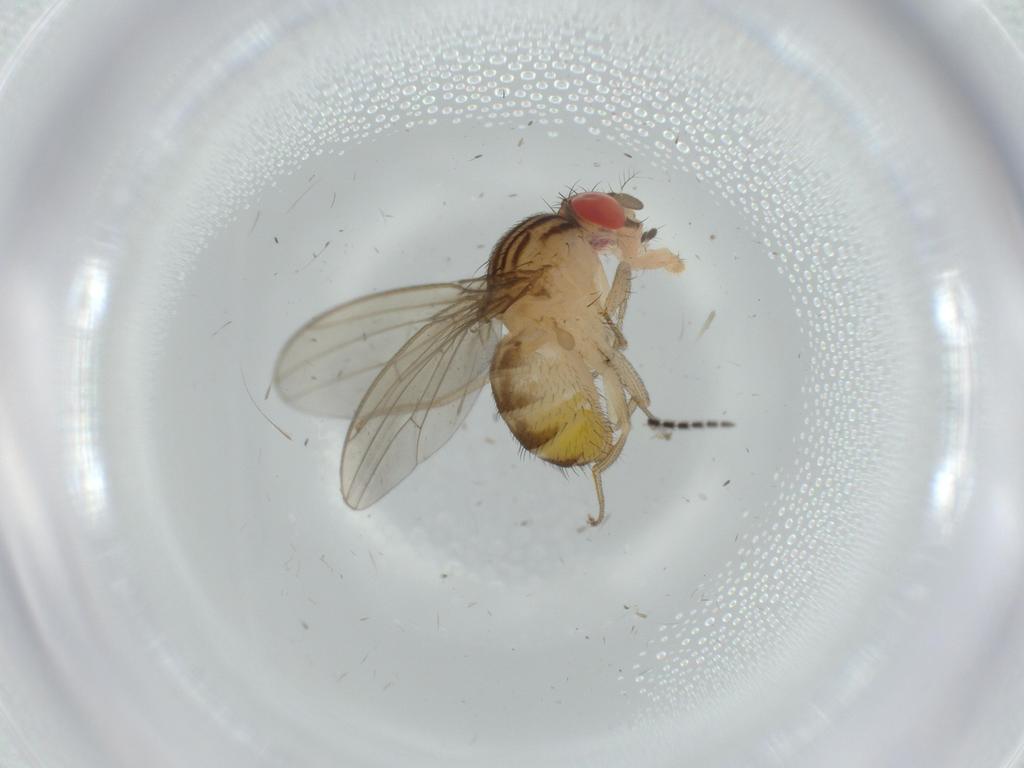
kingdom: Animalia
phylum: Arthropoda
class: Insecta
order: Diptera
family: Drosophilidae
